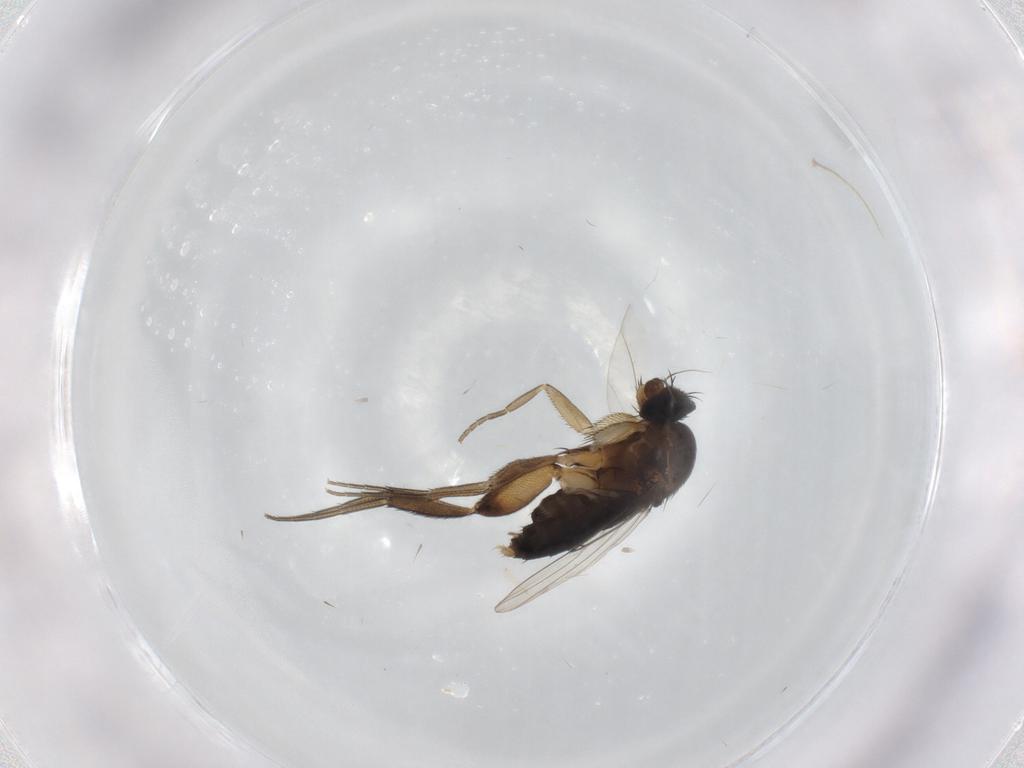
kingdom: Animalia
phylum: Arthropoda
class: Insecta
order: Diptera
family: Phoridae
